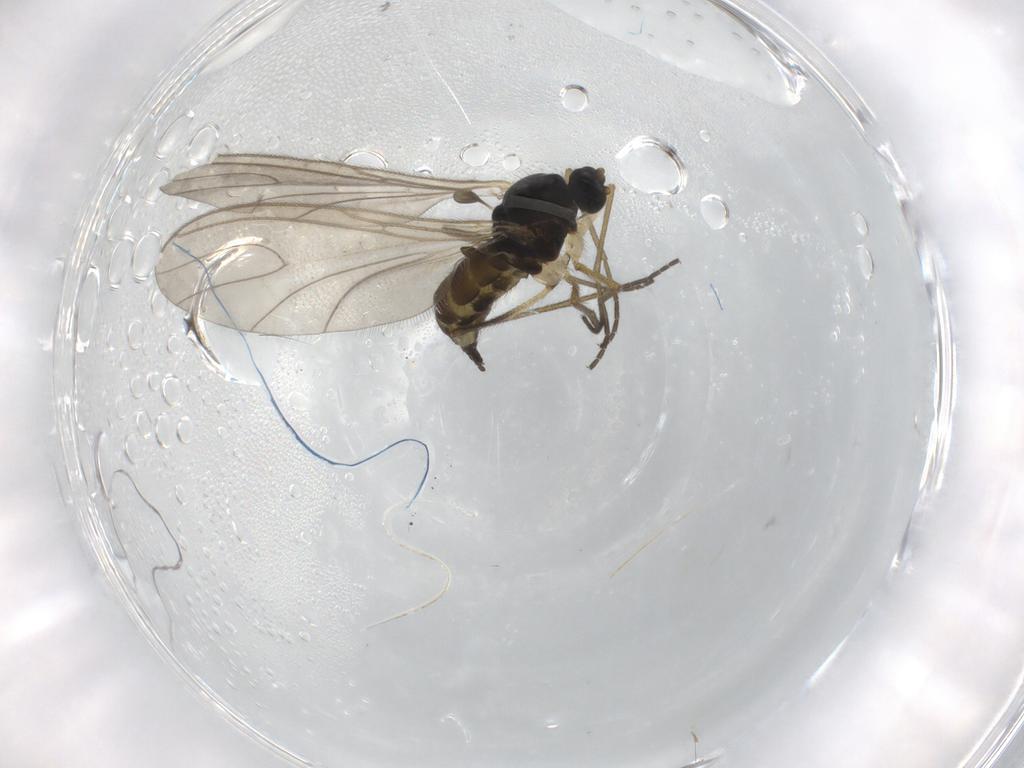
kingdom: Animalia
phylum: Arthropoda
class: Insecta
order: Diptera
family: Sciaridae
